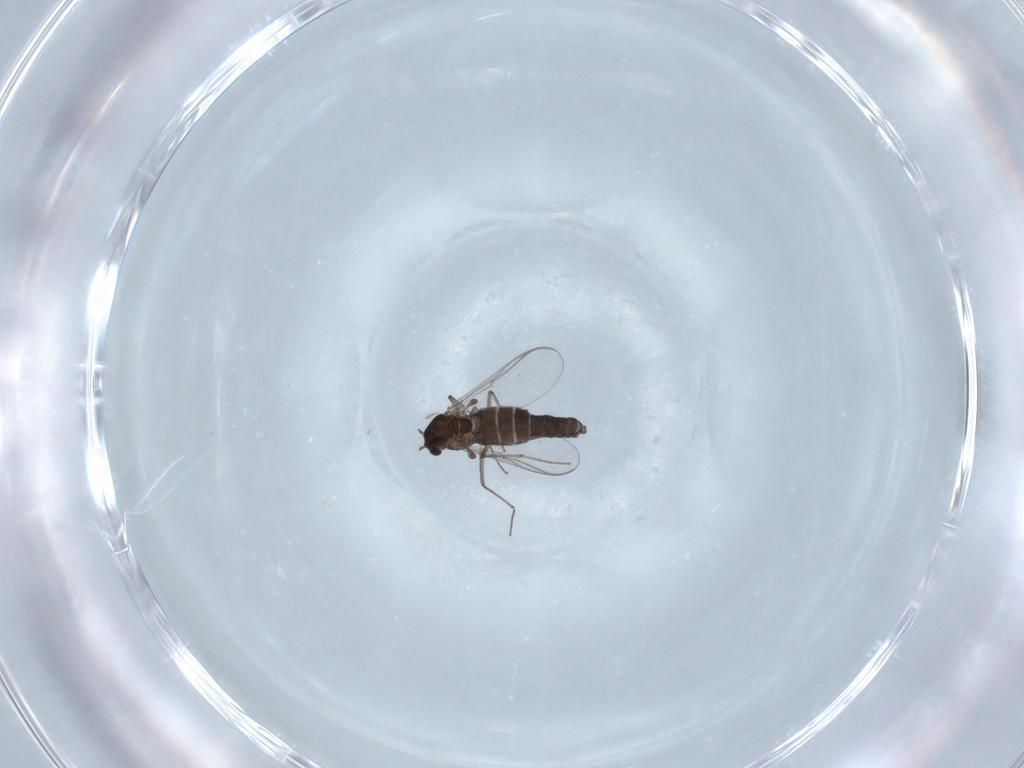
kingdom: Animalia
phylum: Arthropoda
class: Insecta
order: Diptera
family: Chironomidae
